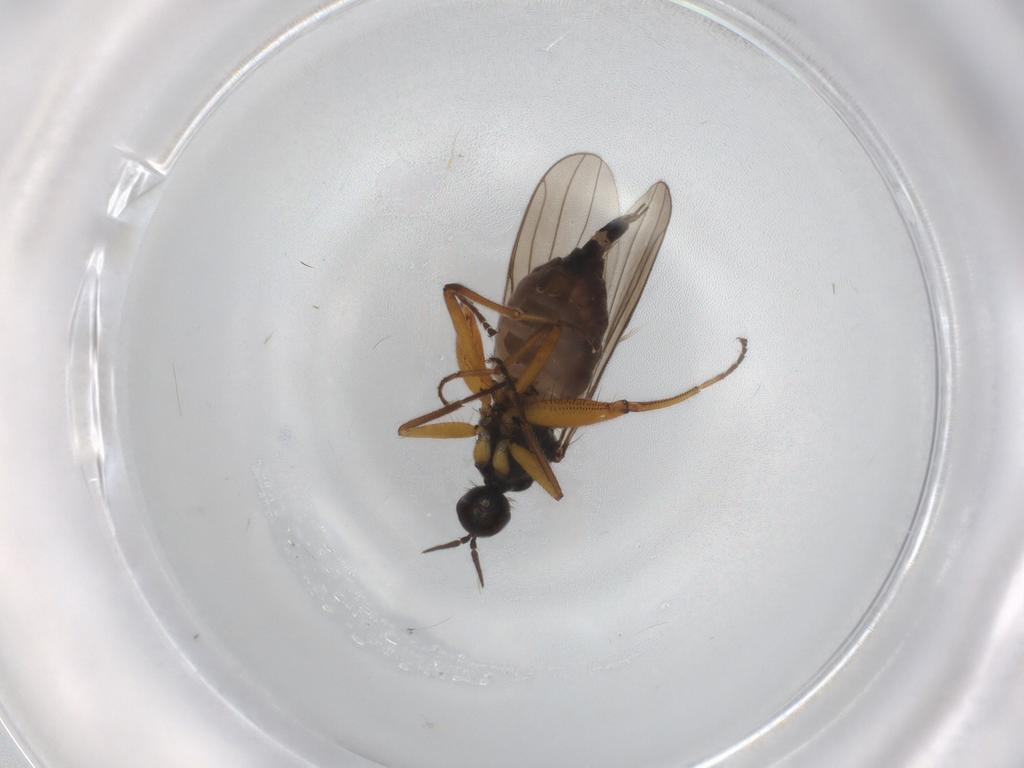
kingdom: Animalia
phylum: Arthropoda
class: Insecta
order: Diptera
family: Hybotidae
